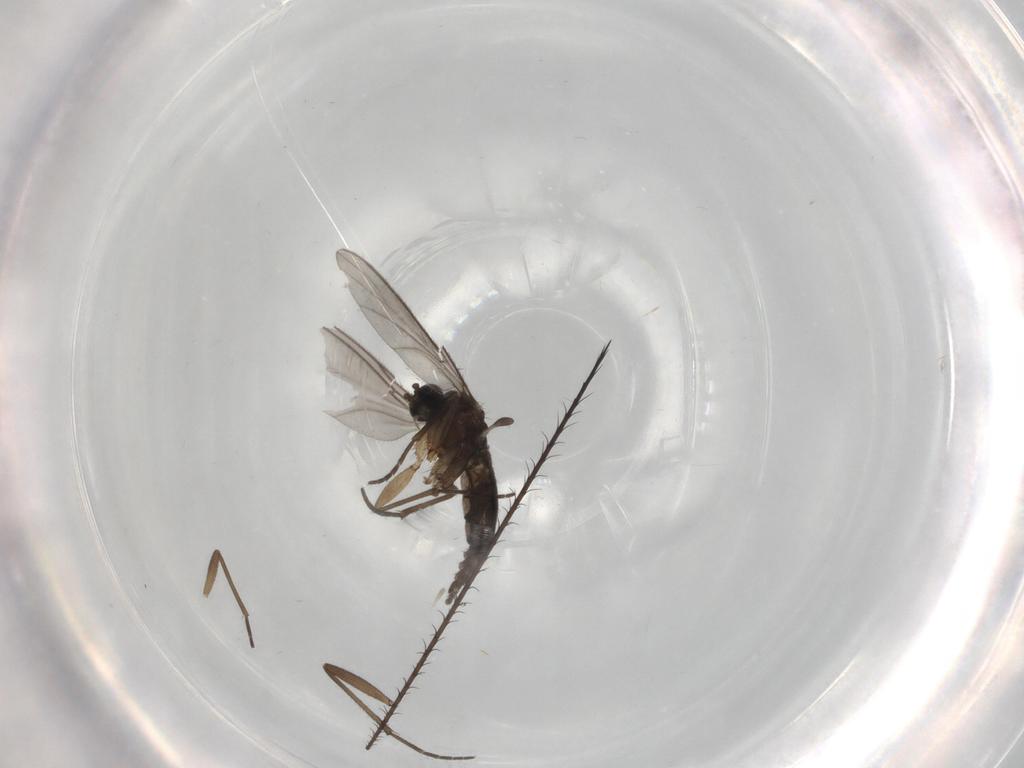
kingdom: Animalia
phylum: Arthropoda
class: Insecta
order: Diptera
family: Sciaridae
